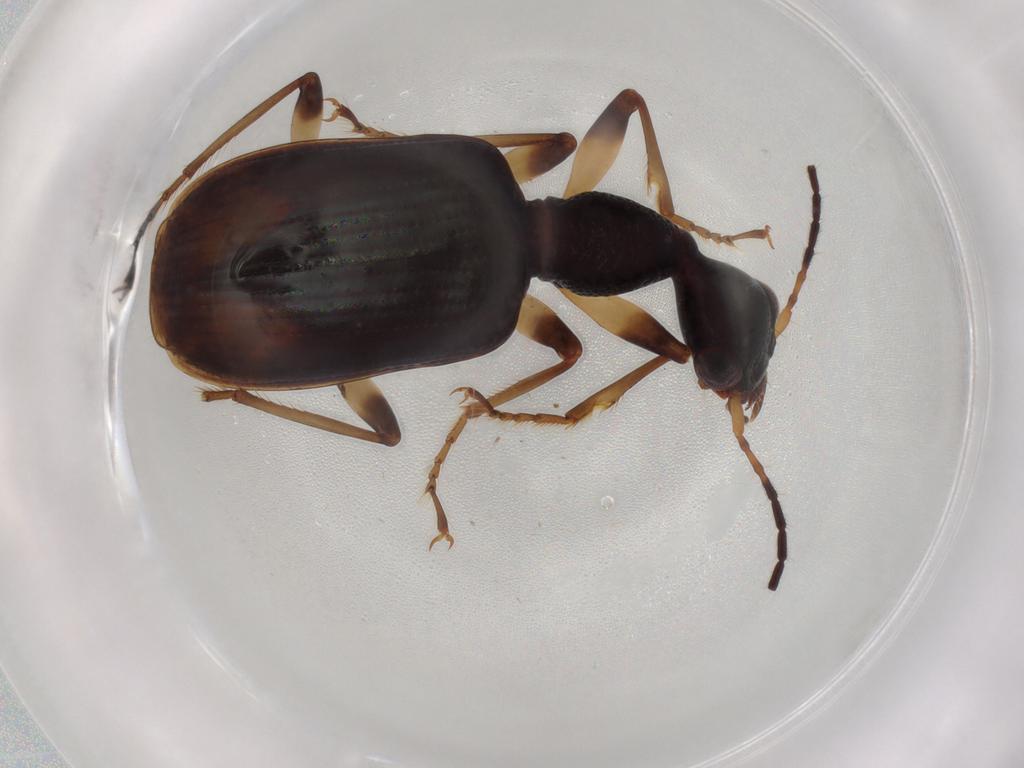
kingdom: Animalia
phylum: Arthropoda
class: Insecta
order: Coleoptera
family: Carabidae
